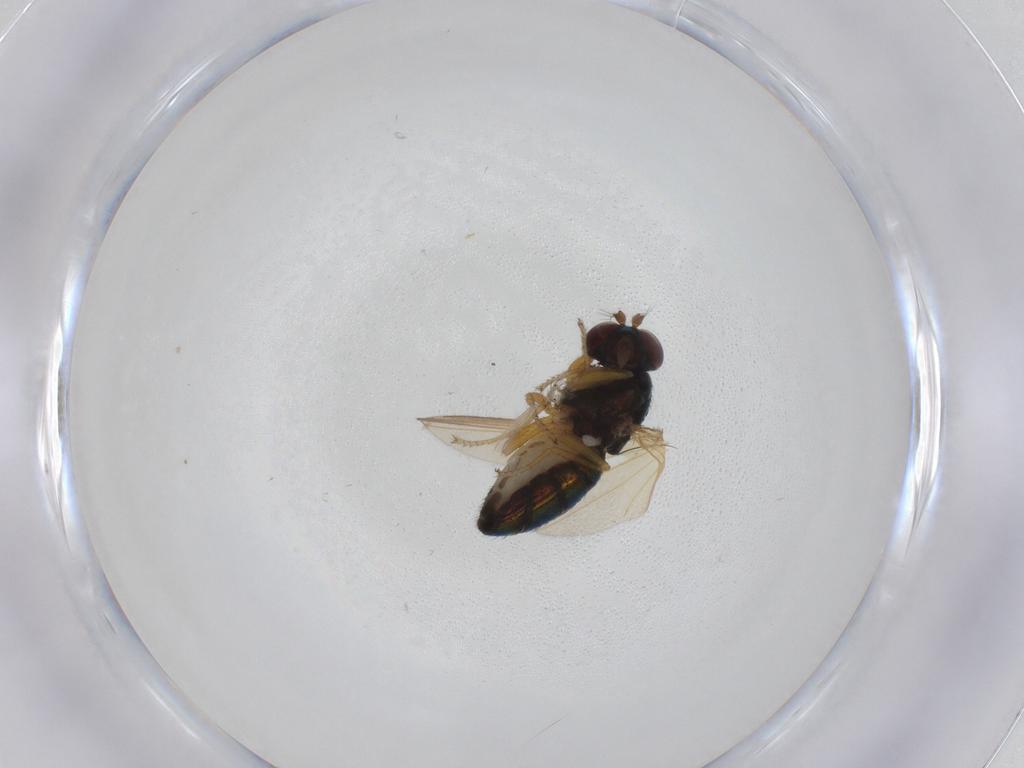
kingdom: Animalia
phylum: Arthropoda
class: Insecta
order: Diptera
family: Ephydridae
